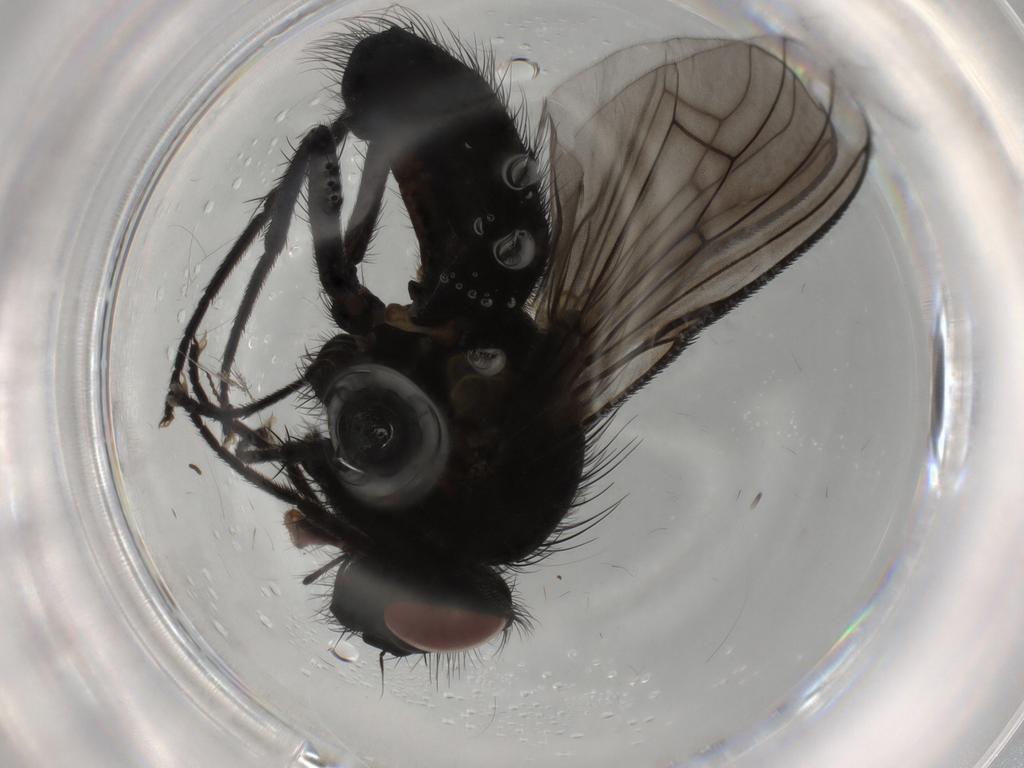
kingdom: Animalia
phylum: Arthropoda
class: Insecta
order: Diptera
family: Muscidae
